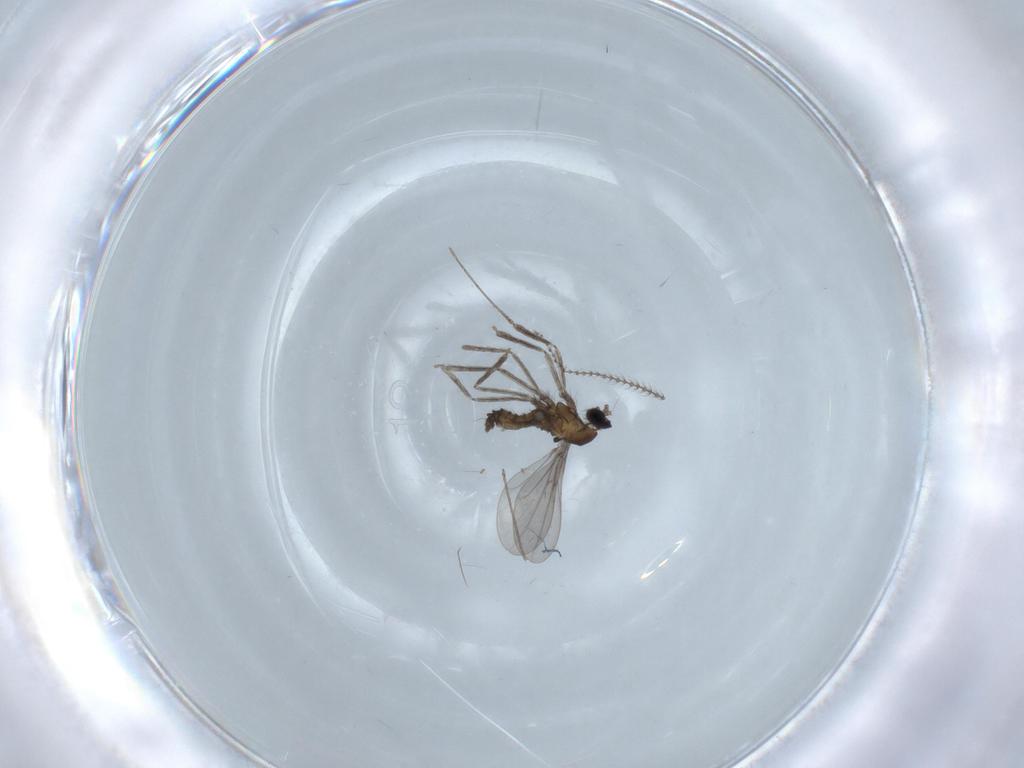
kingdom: Animalia
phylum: Arthropoda
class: Insecta
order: Diptera
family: Cecidomyiidae
